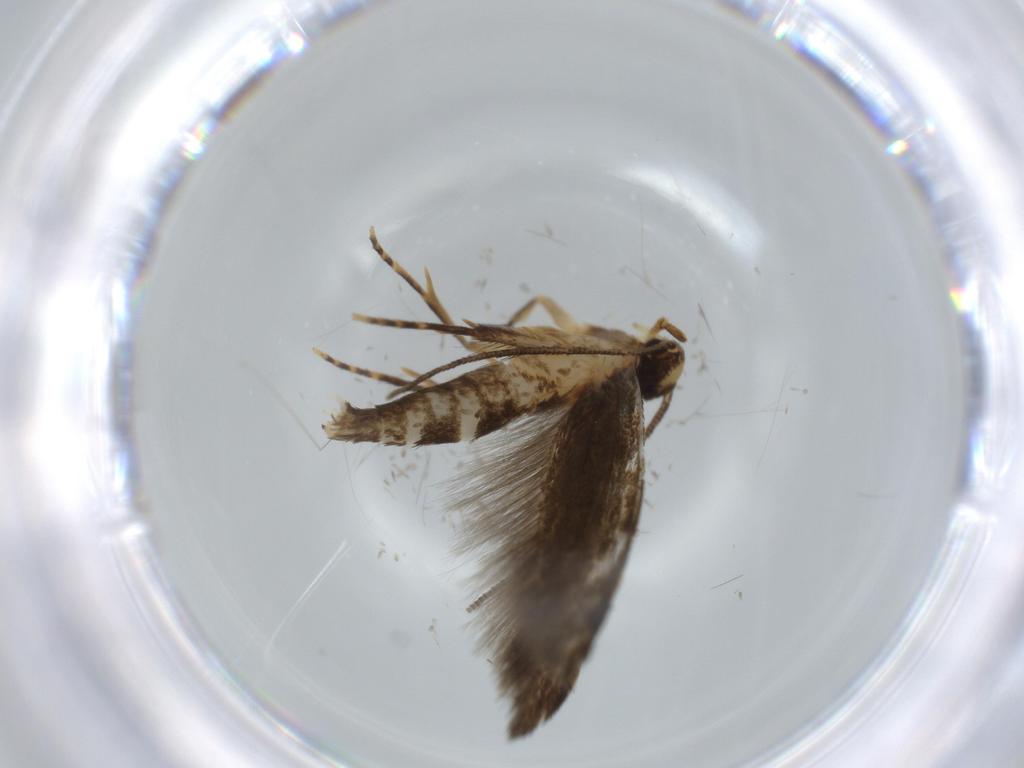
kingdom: Animalia
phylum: Arthropoda
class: Insecta
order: Lepidoptera
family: Tineidae
